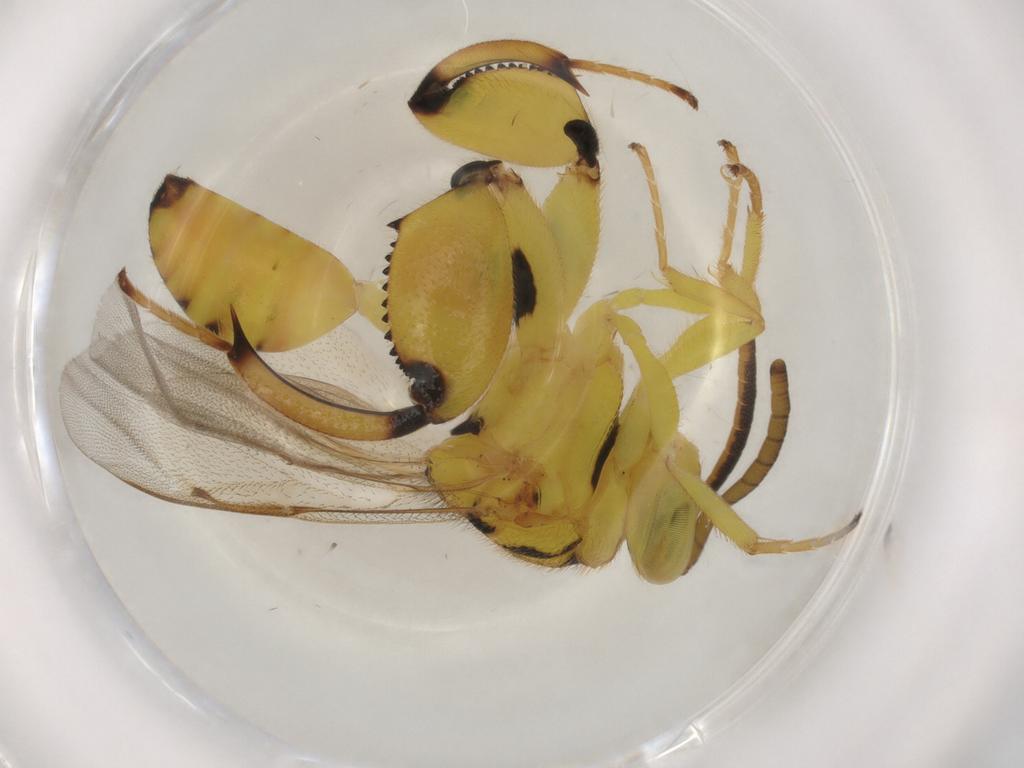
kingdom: Animalia
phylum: Arthropoda
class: Insecta
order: Hymenoptera
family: Chalcididae
